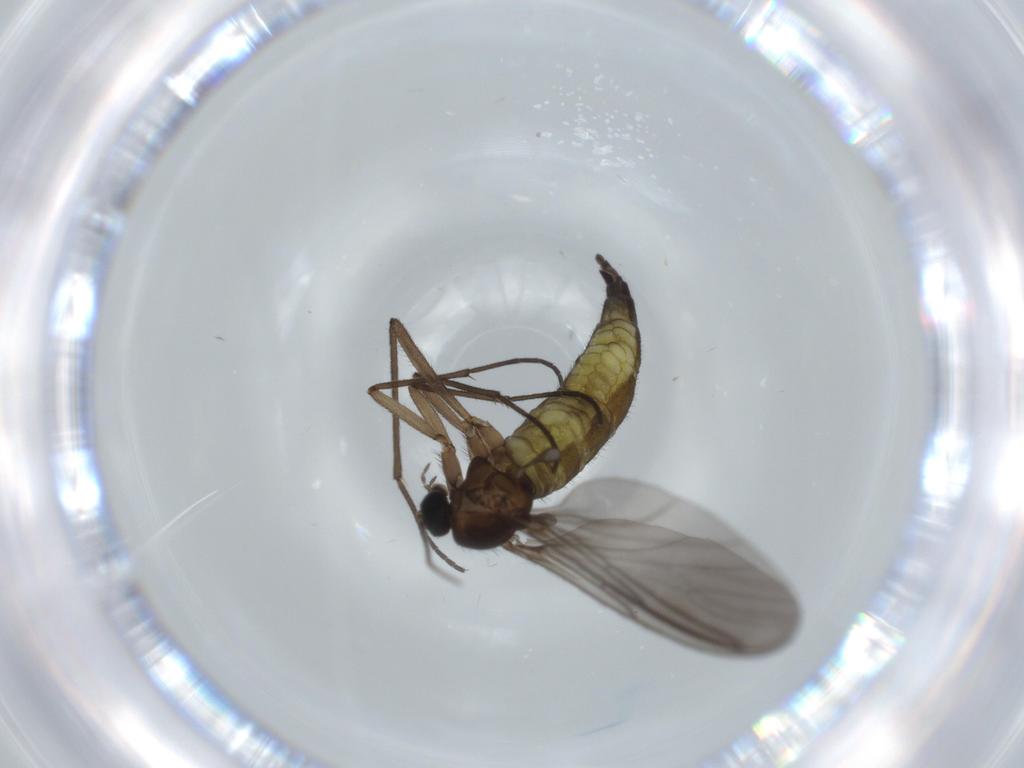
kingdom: Animalia
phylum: Arthropoda
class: Insecta
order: Diptera
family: Sciaridae
